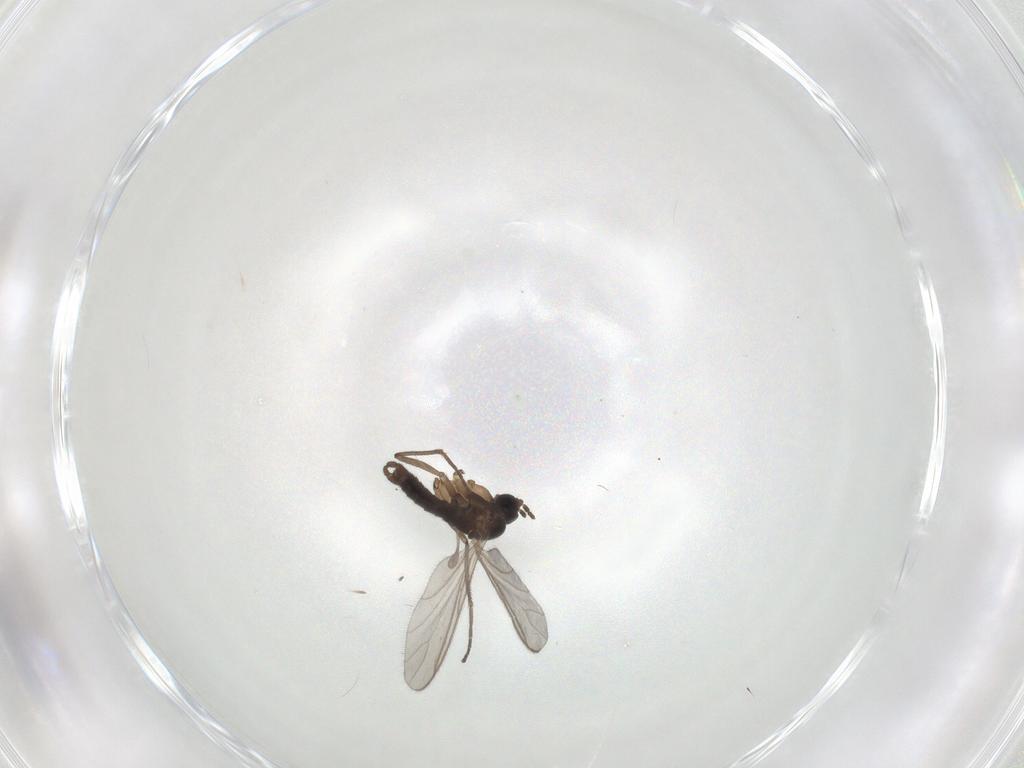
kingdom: Animalia
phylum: Arthropoda
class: Insecta
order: Diptera
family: Sciaridae
